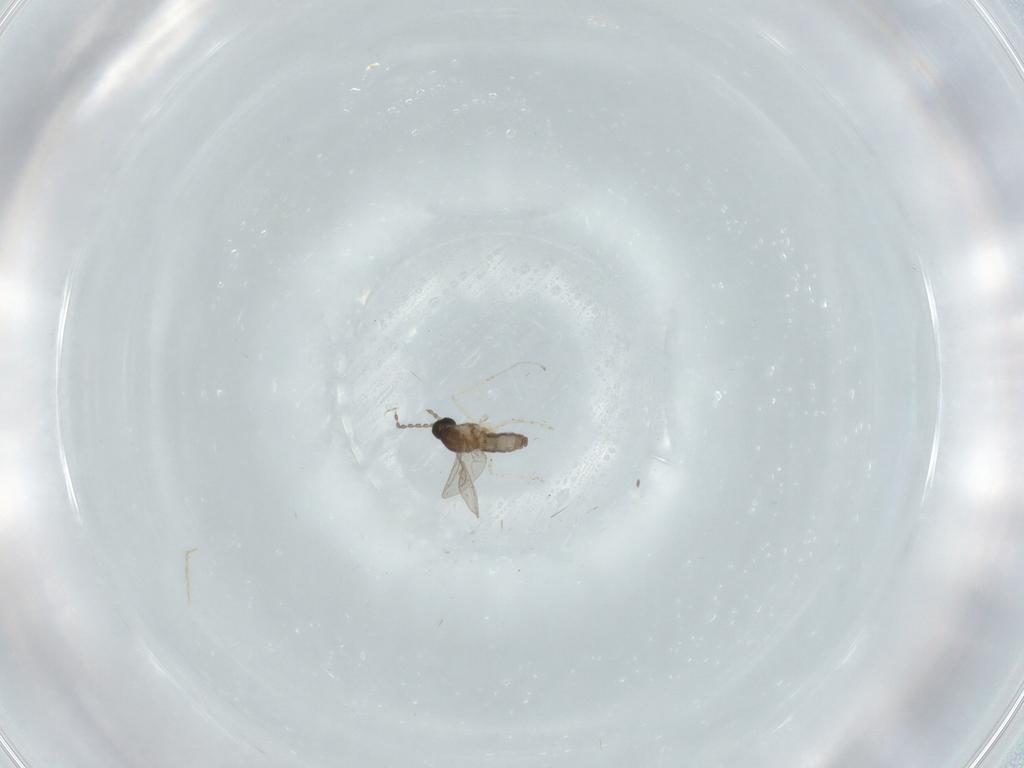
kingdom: Animalia
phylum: Arthropoda
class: Insecta
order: Diptera
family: Cecidomyiidae
